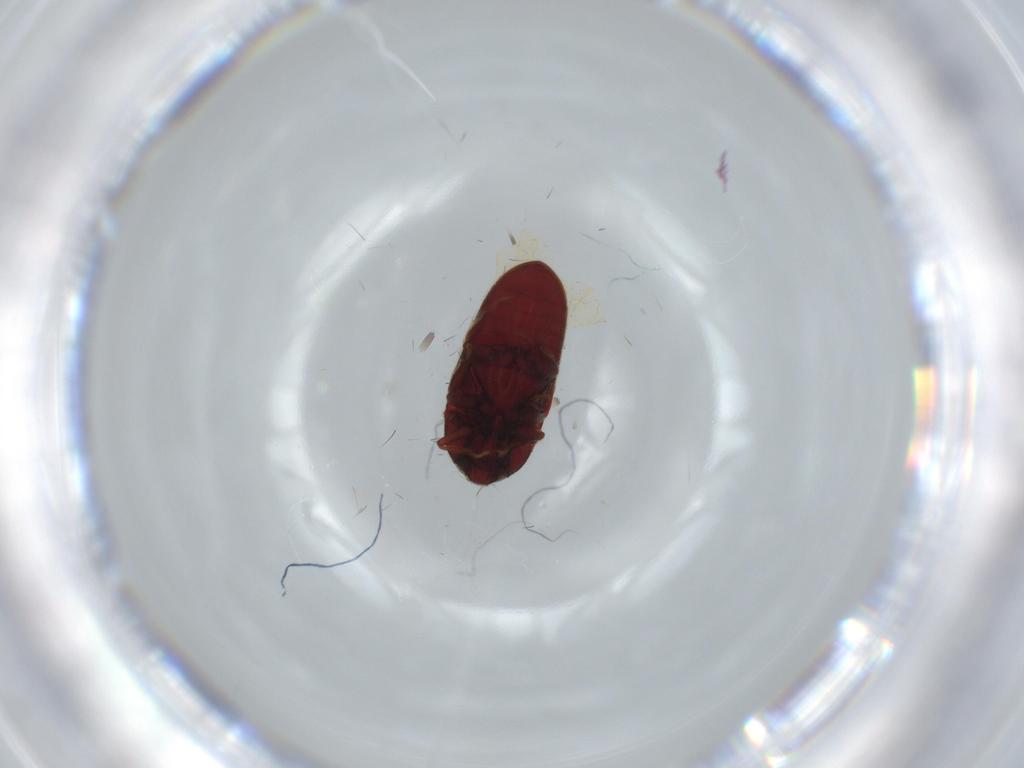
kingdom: Animalia
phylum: Arthropoda
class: Insecta
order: Coleoptera
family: Throscidae
